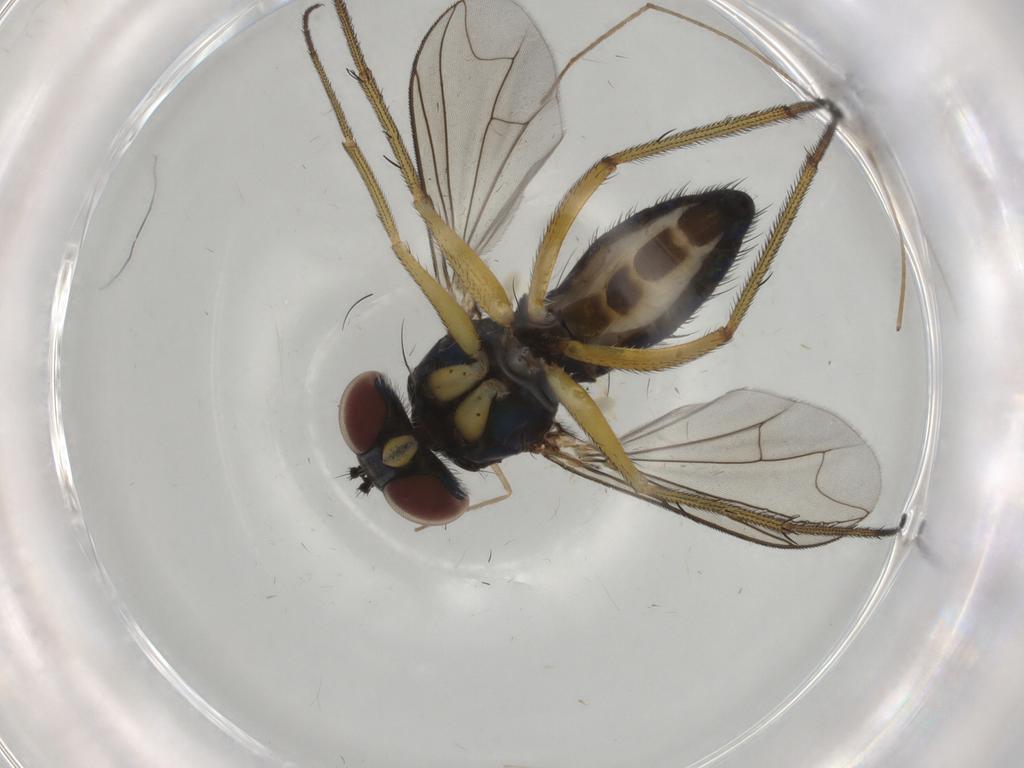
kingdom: Animalia
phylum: Arthropoda
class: Insecta
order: Diptera
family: Dolichopodidae
